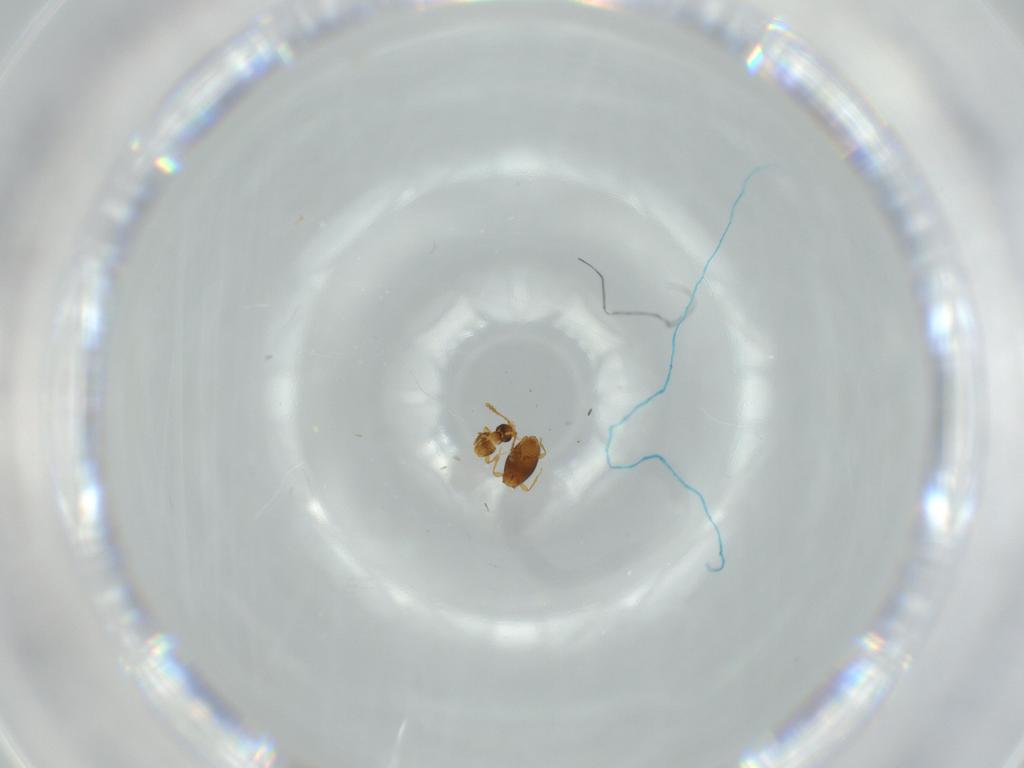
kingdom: Animalia
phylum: Arthropoda
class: Insecta
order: Coleoptera
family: Staphylinidae
